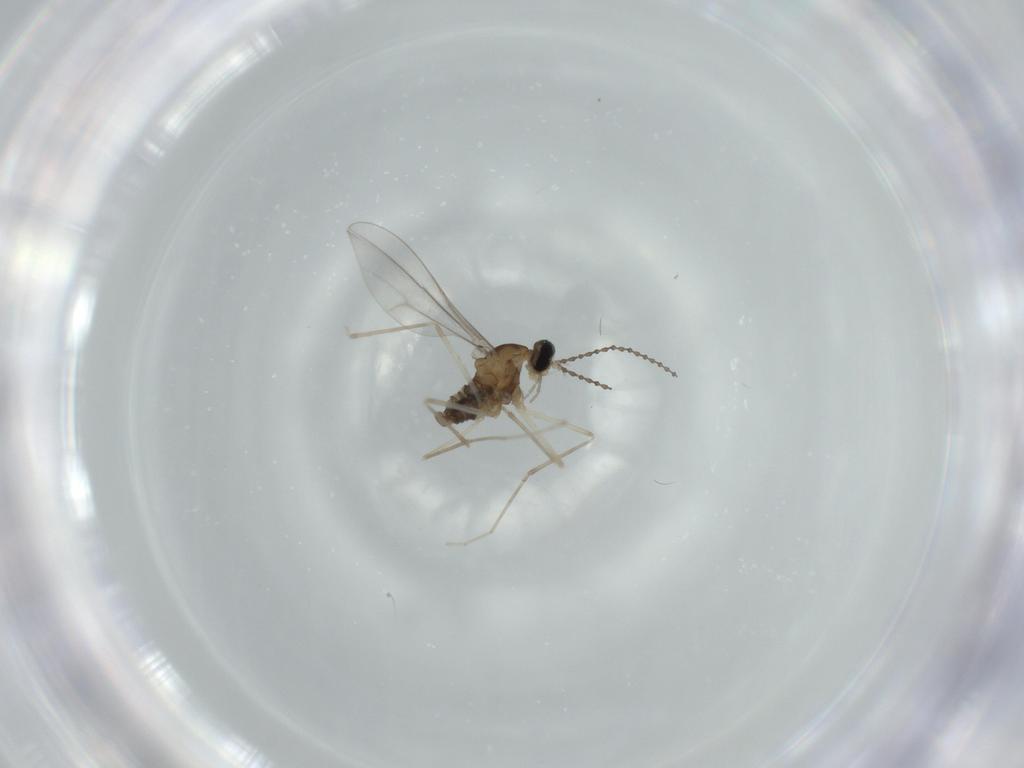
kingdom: Animalia
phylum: Arthropoda
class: Insecta
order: Diptera
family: Cecidomyiidae
